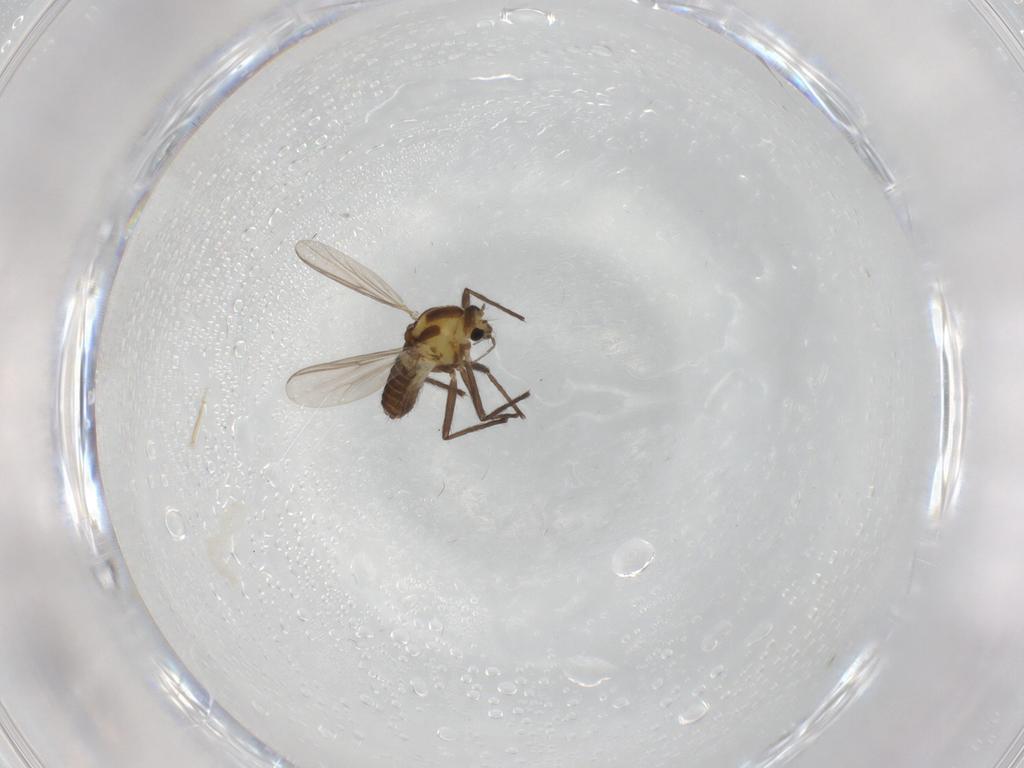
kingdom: Animalia
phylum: Arthropoda
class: Insecta
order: Diptera
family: Chironomidae
